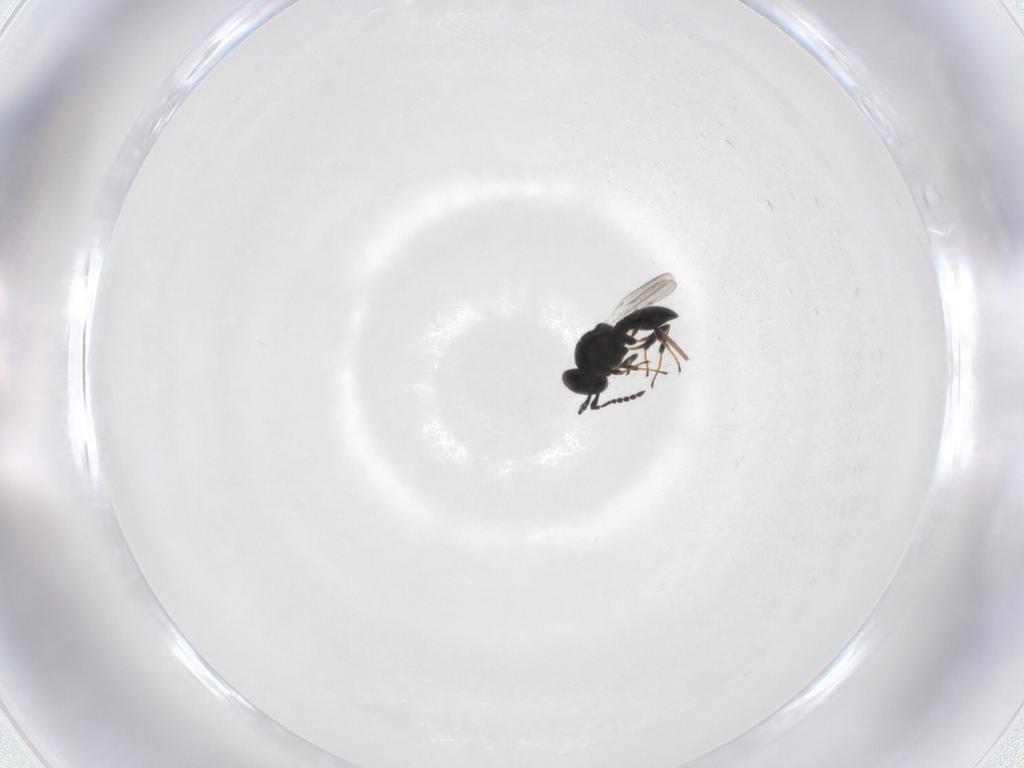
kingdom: Animalia
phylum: Arthropoda
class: Insecta
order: Hymenoptera
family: Platygastridae
